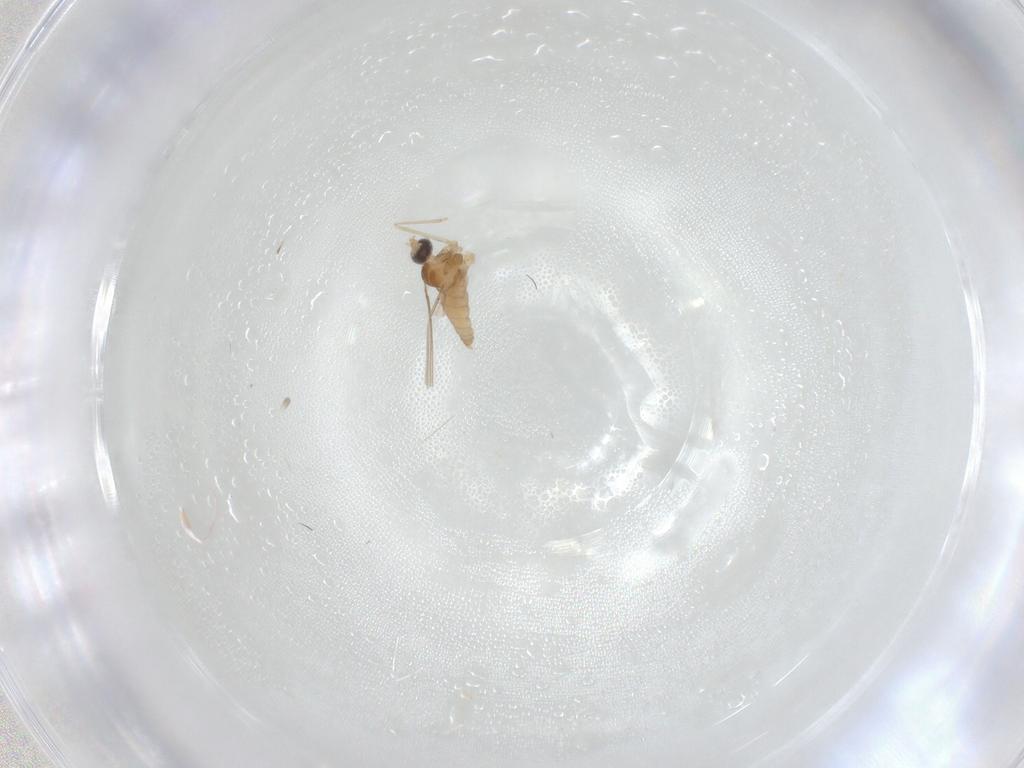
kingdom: Animalia
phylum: Arthropoda
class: Insecta
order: Diptera
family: Cecidomyiidae
